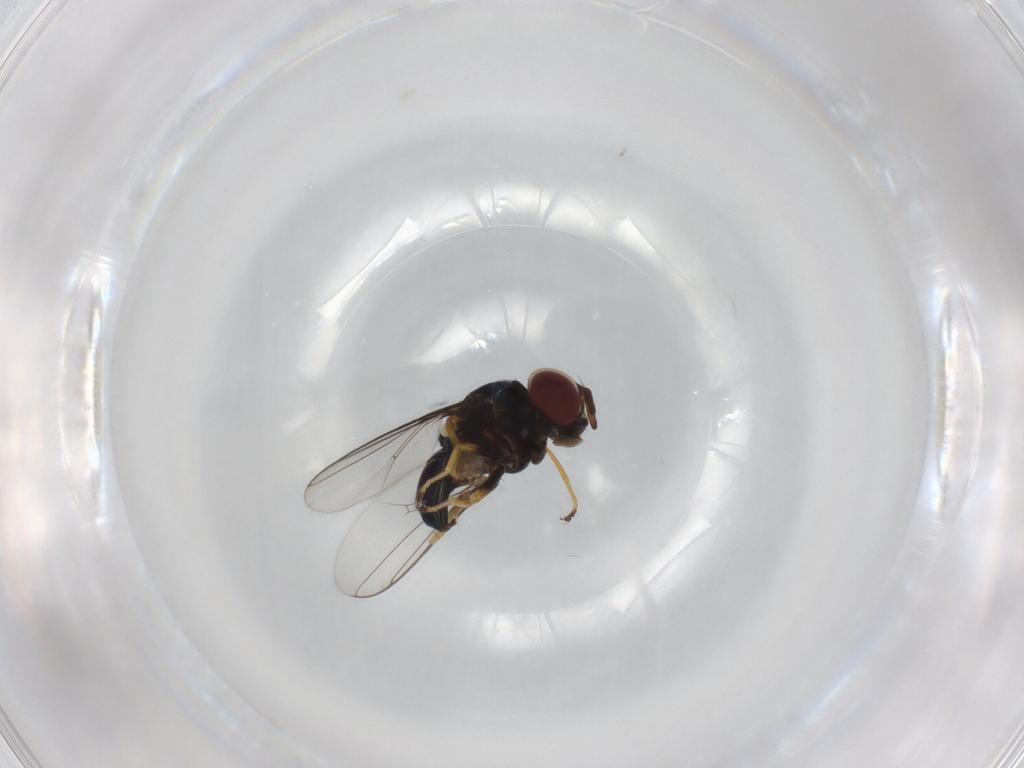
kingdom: Animalia
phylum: Arthropoda
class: Insecta
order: Diptera
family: Chloropidae
